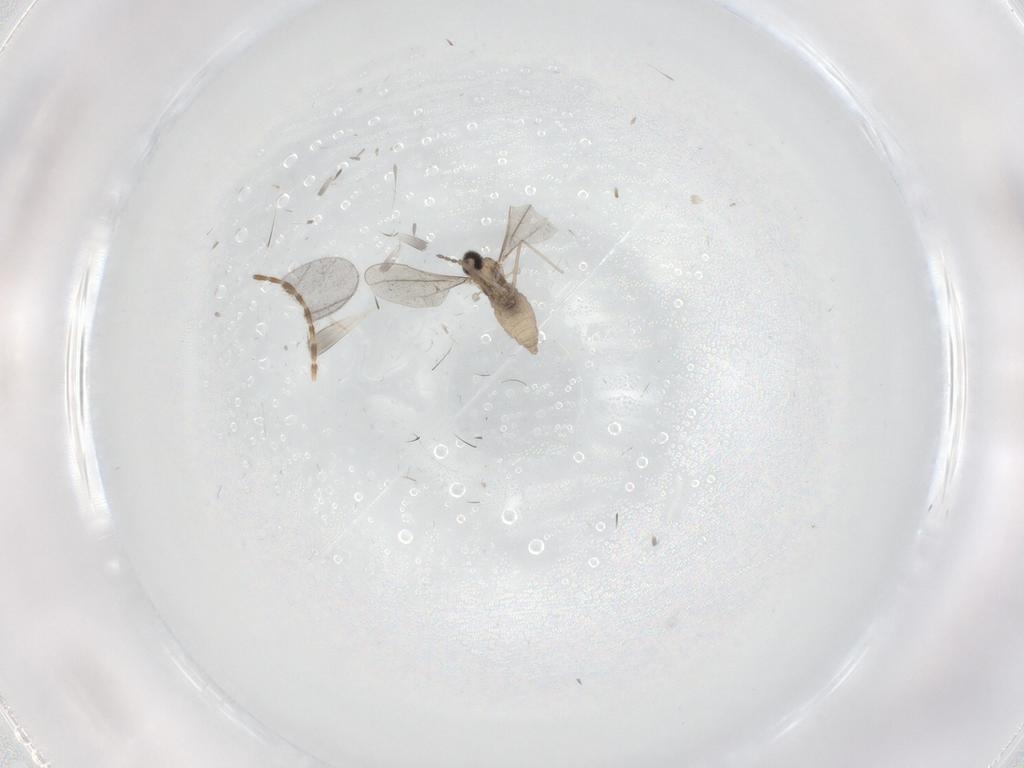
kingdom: Animalia
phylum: Arthropoda
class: Insecta
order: Diptera
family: Cecidomyiidae
